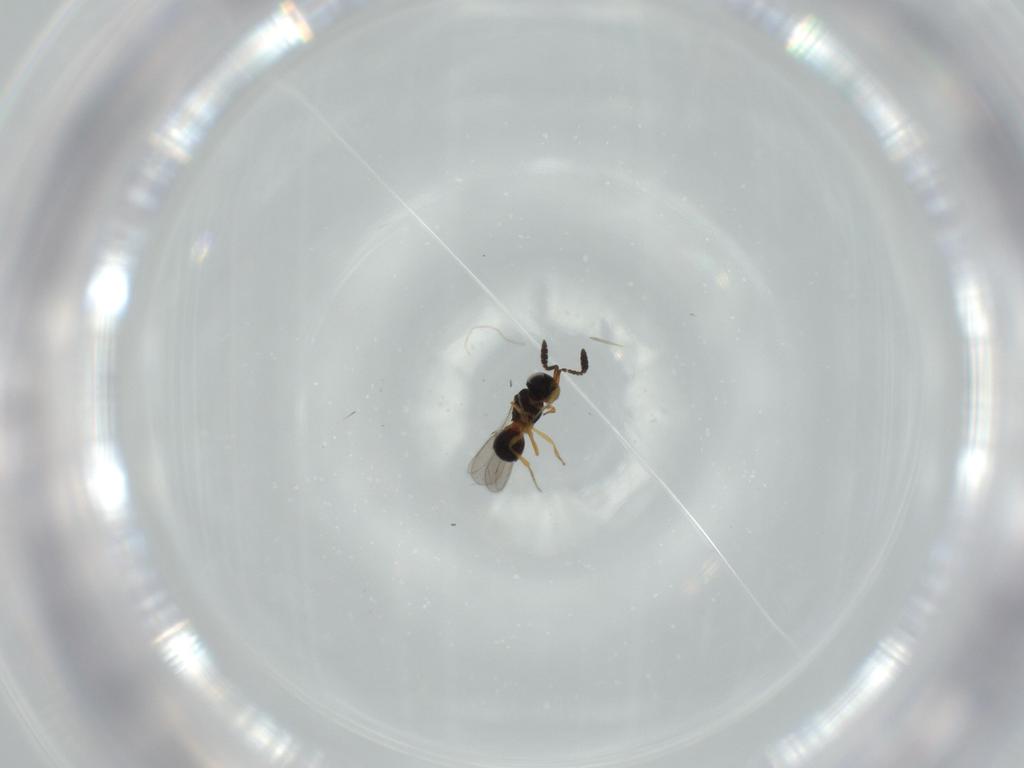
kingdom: Animalia
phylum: Arthropoda
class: Insecta
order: Hymenoptera
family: Scelionidae
